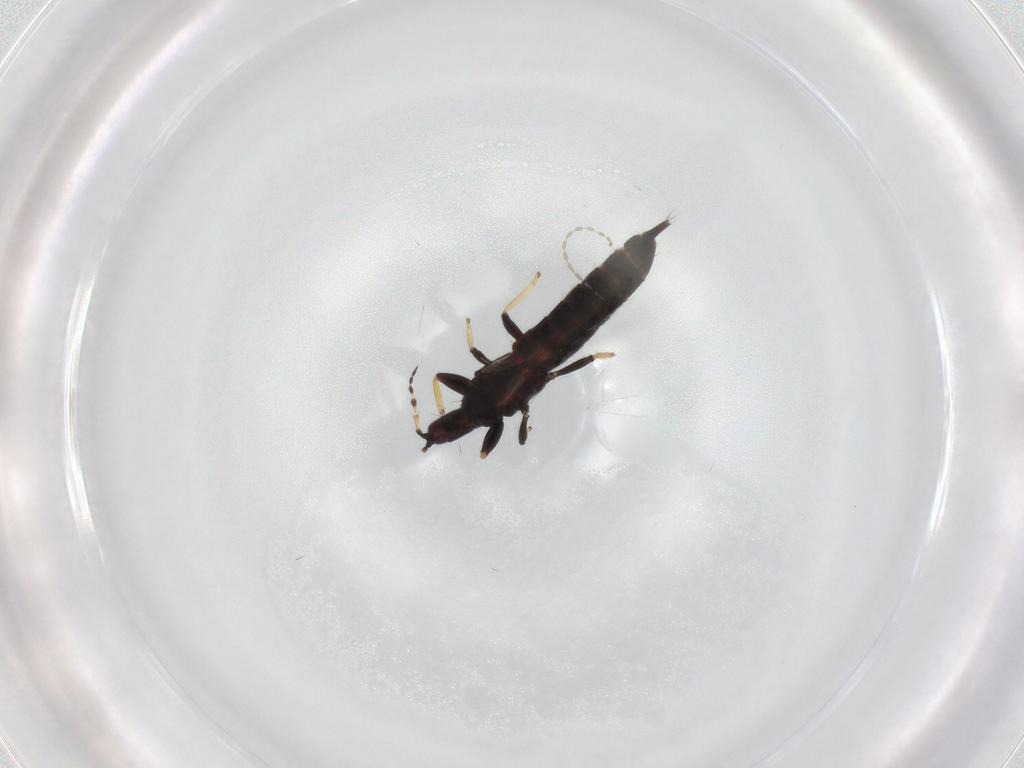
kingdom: Animalia
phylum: Arthropoda
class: Insecta
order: Thysanoptera
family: Phlaeothripidae
